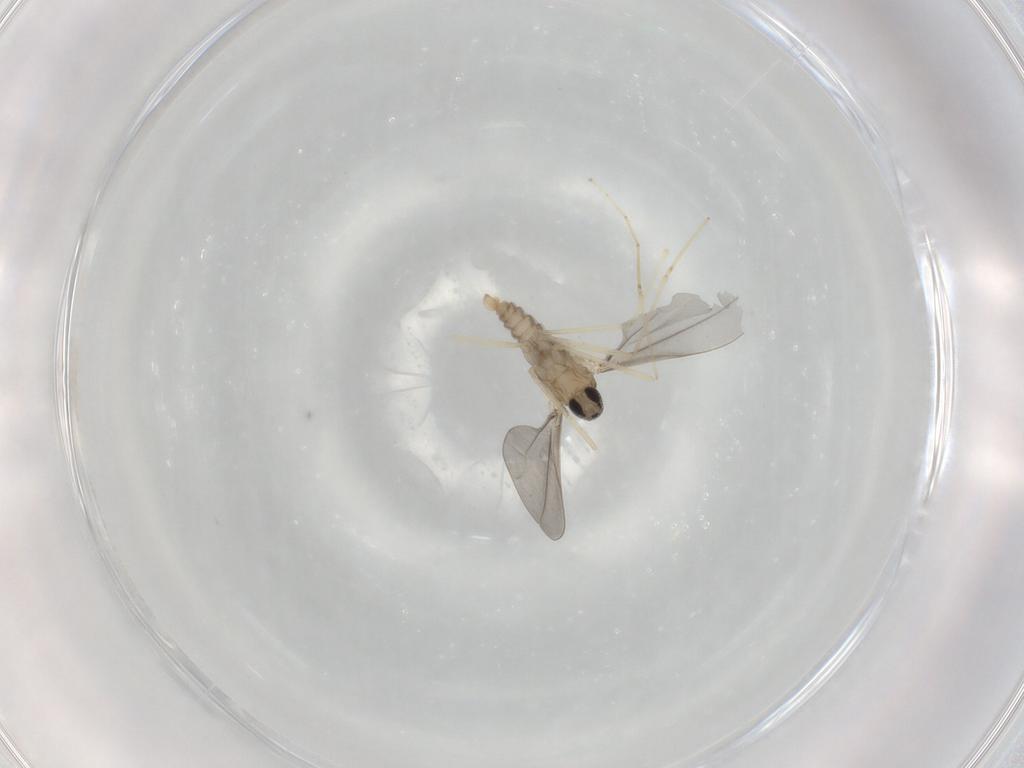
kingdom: Animalia
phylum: Arthropoda
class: Insecta
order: Diptera
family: Cecidomyiidae
